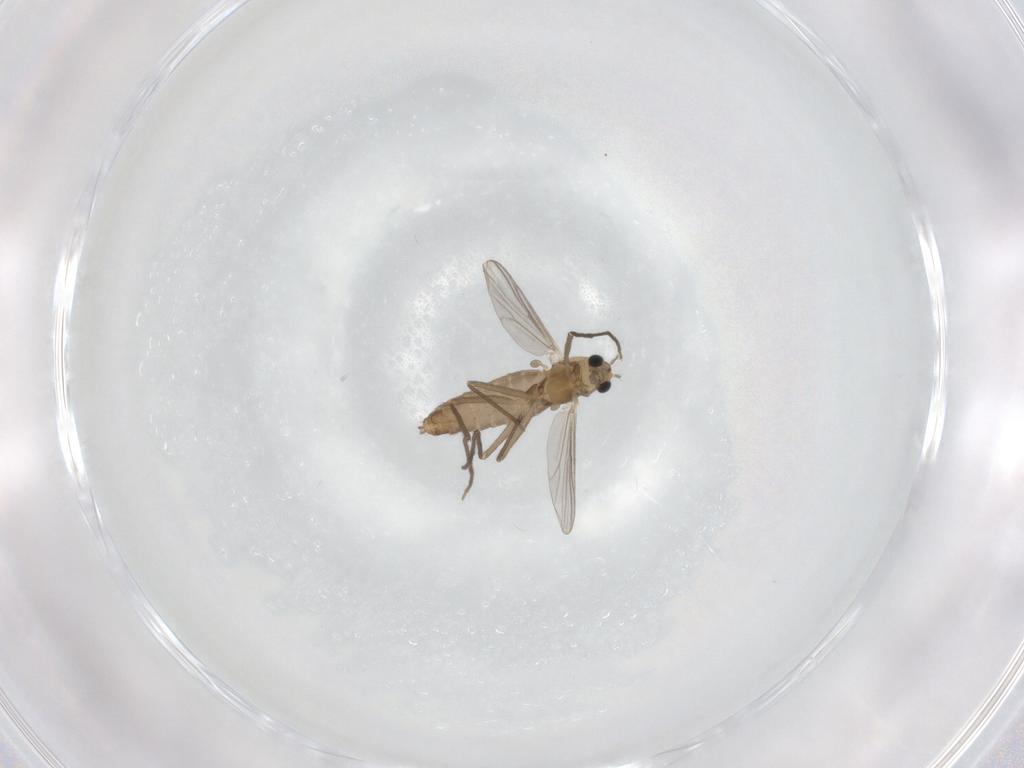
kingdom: Animalia
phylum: Arthropoda
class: Insecta
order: Diptera
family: Chironomidae
